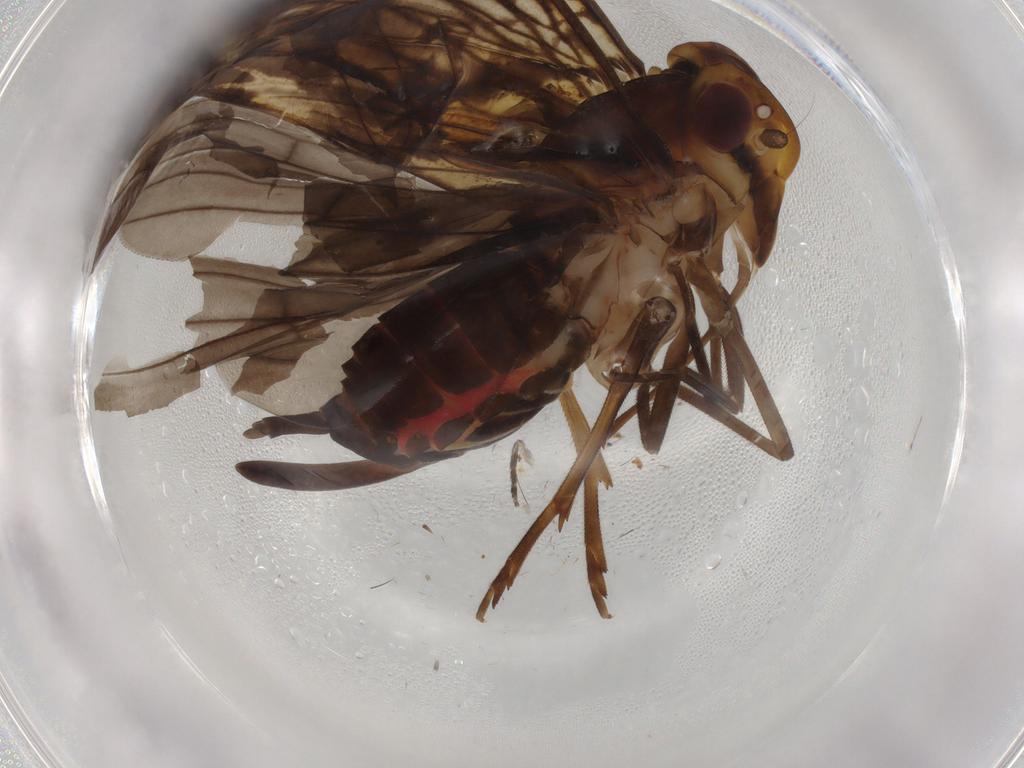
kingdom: Animalia
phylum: Arthropoda
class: Insecta
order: Hemiptera
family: Cixiidae
